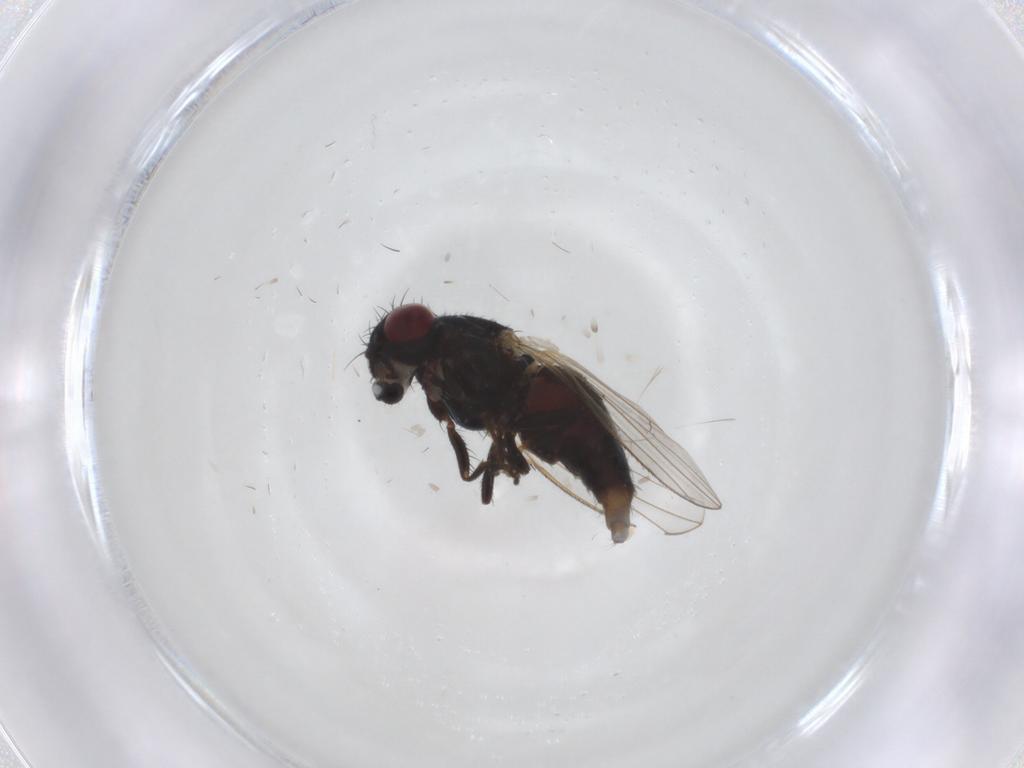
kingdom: Animalia
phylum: Arthropoda
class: Insecta
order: Diptera
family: Carnidae
